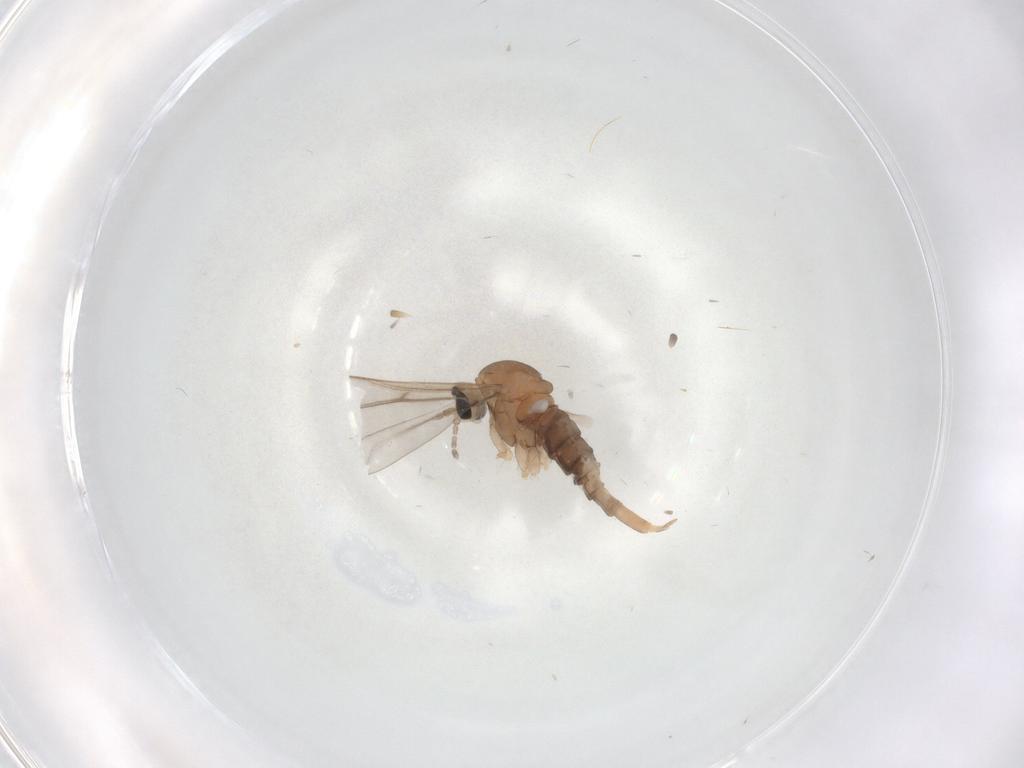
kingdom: Animalia
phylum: Arthropoda
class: Insecta
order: Diptera
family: Cecidomyiidae
